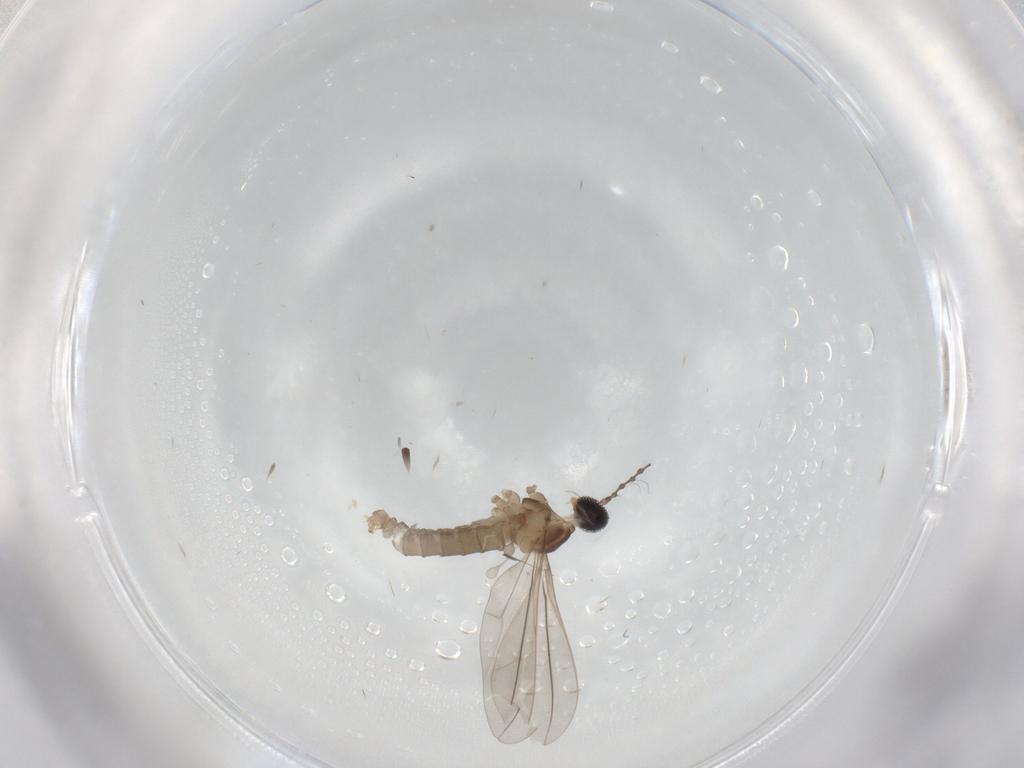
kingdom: Animalia
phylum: Arthropoda
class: Insecta
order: Diptera
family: Cecidomyiidae
